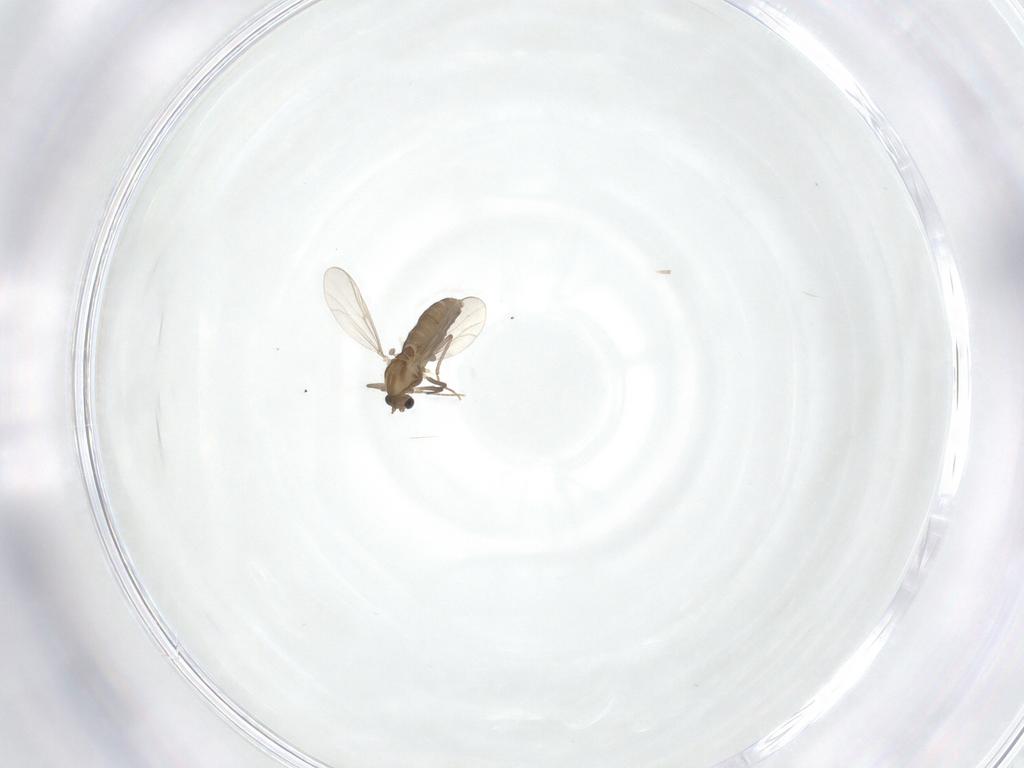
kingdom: Animalia
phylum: Arthropoda
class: Insecta
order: Diptera
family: Chironomidae
